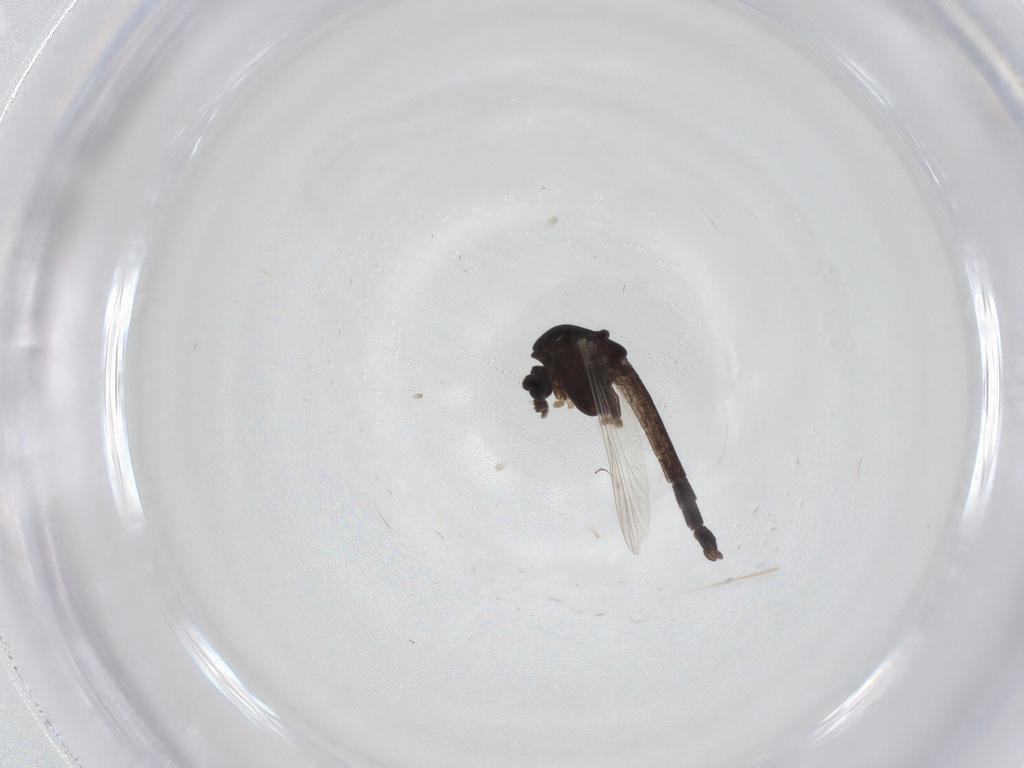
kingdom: Animalia
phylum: Arthropoda
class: Insecta
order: Diptera
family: Chironomidae
